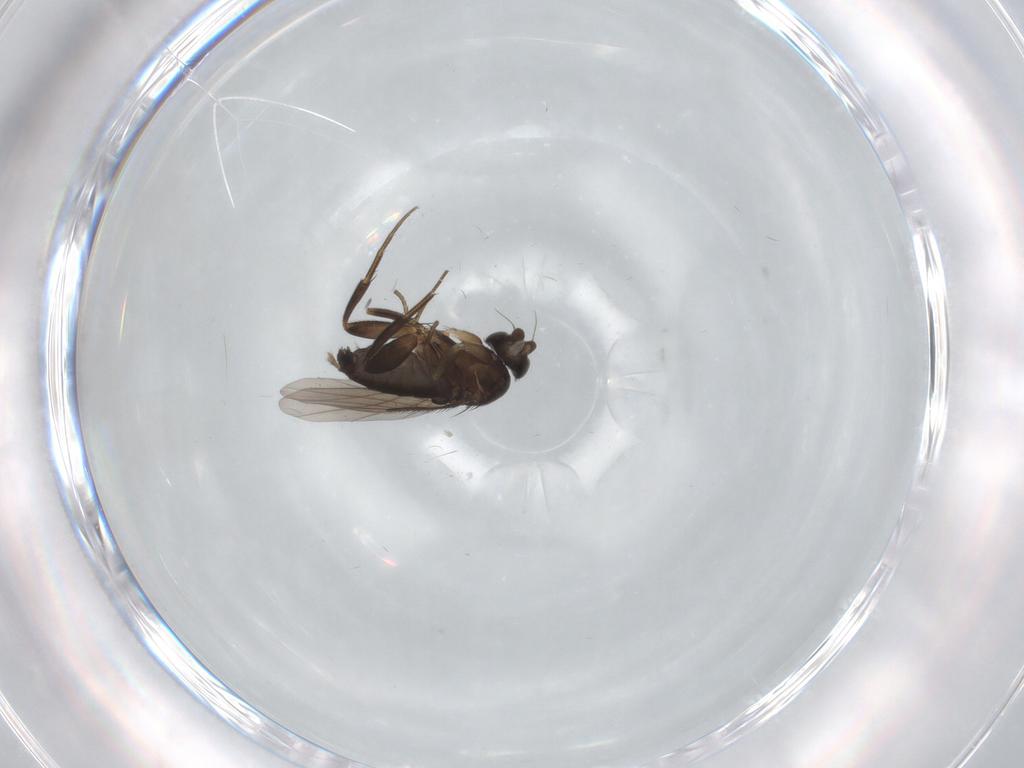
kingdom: Animalia
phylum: Arthropoda
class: Insecta
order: Diptera
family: Phoridae
